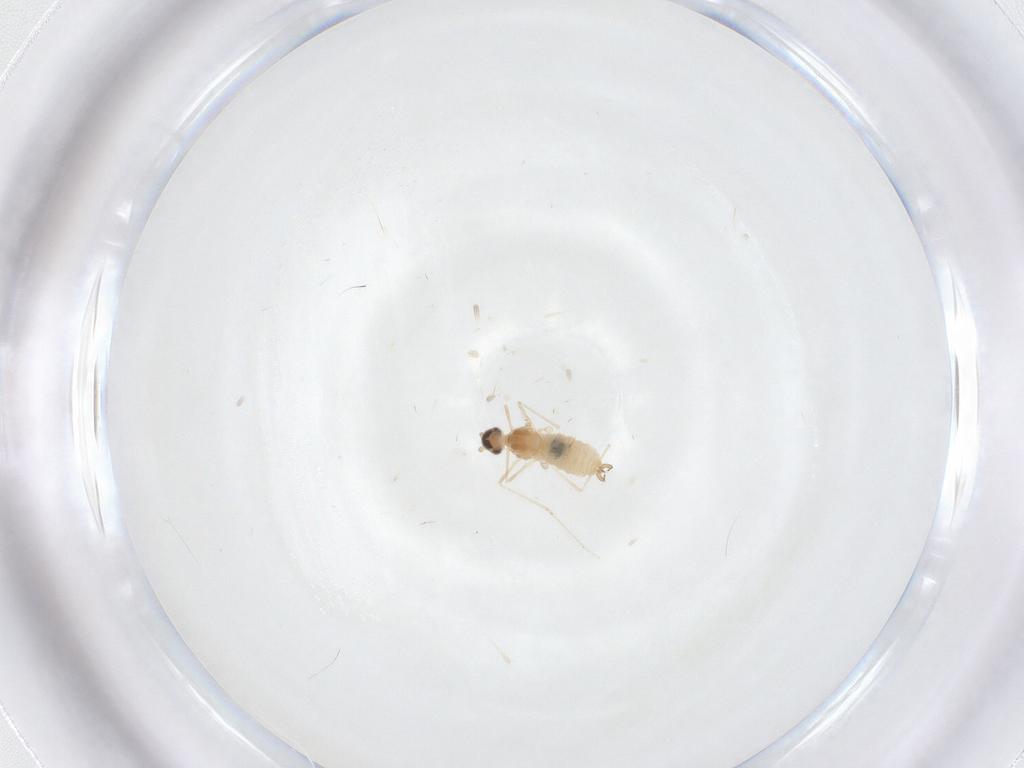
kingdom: Animalia
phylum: Arthropoda
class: Insecta
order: Diptera
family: Cecidomyiidae
